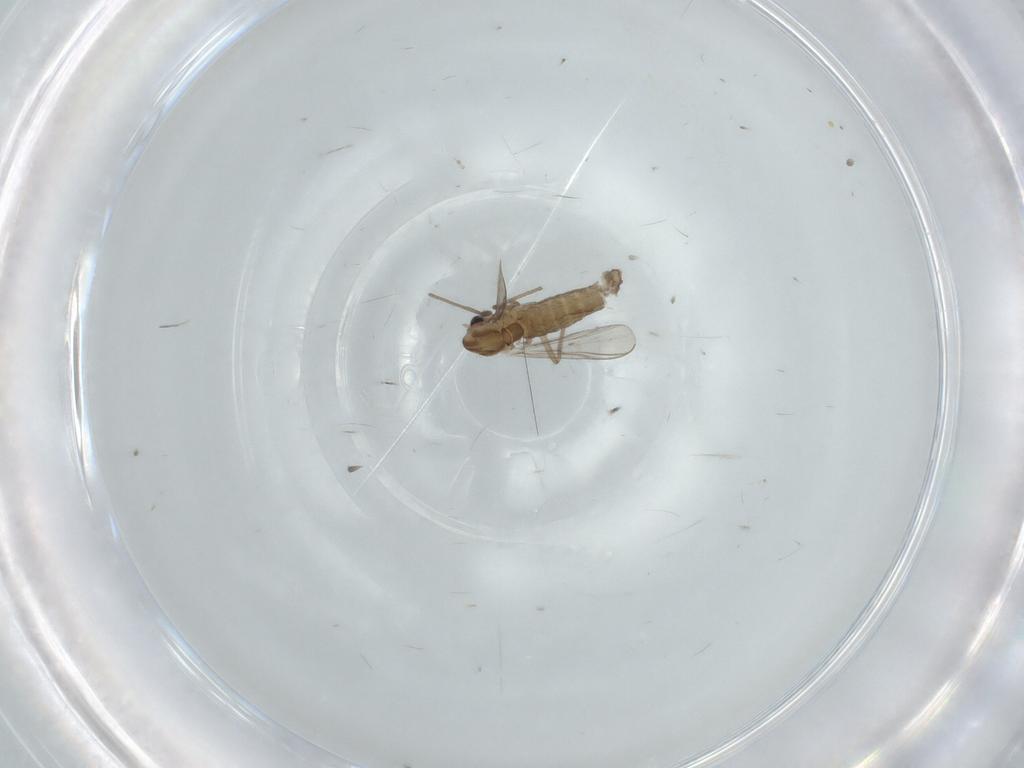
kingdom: Animalia
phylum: Arthropoda
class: Insecta
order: Diptera
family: Chironomidae
